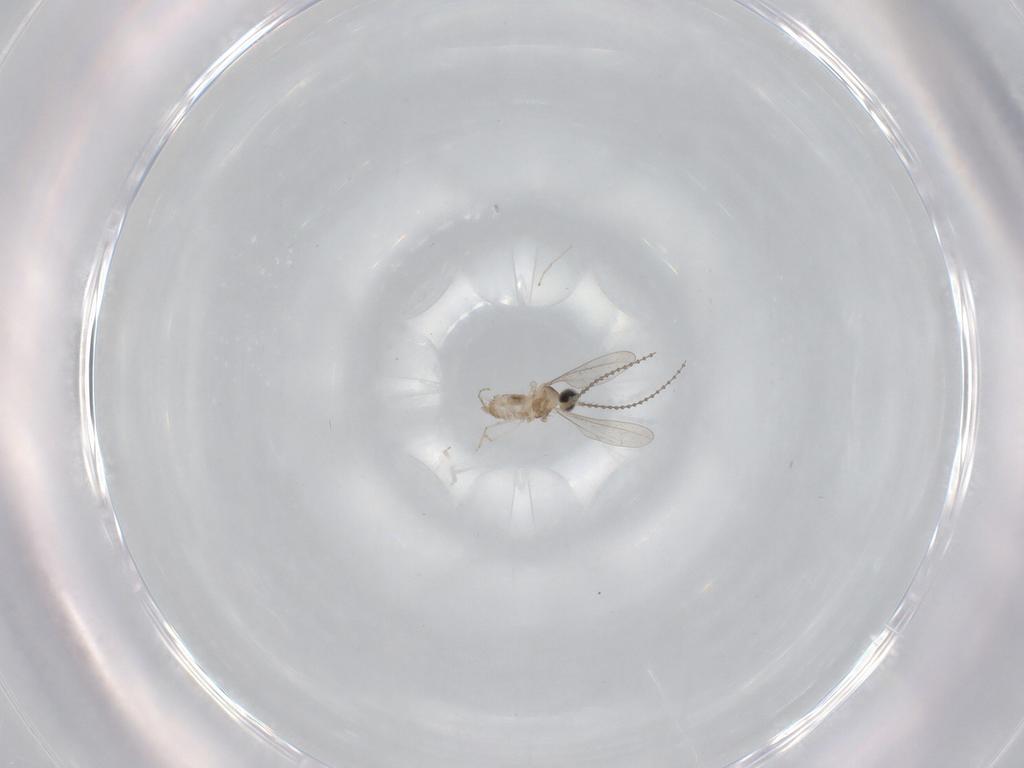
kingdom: Animalia
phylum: Arthropoda
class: Insecta
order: Diptera
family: Cecidomyiidae
